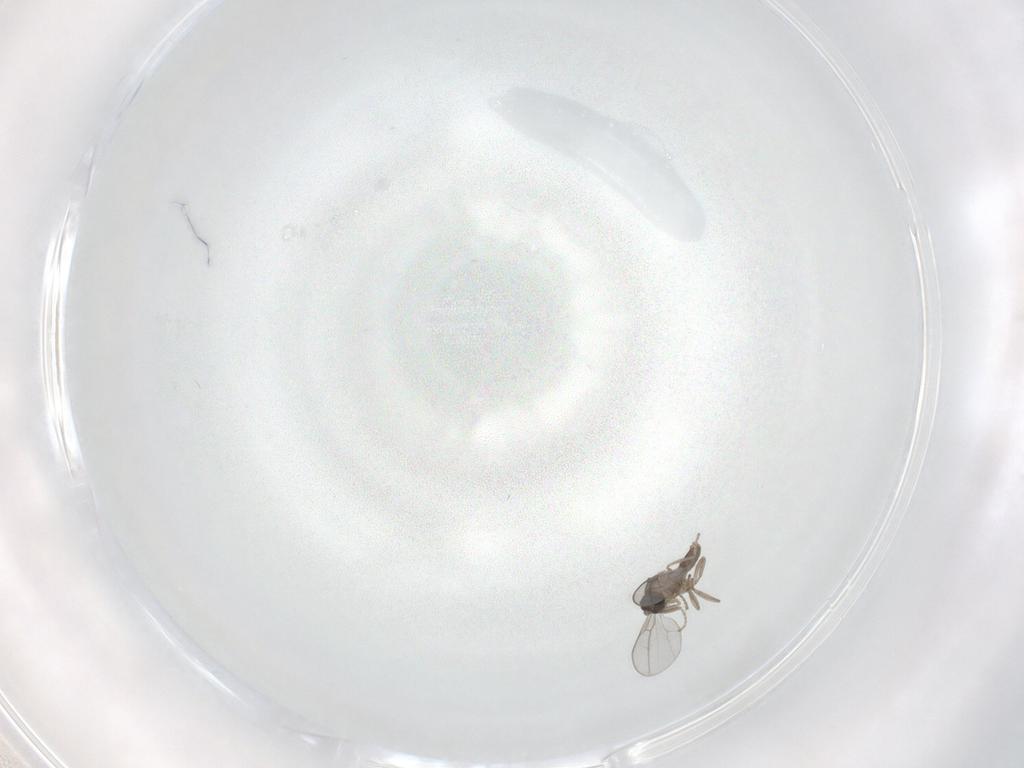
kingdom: Animalia
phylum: Arthropoda
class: Insecta
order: Diptera
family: Cecidomyiidae
